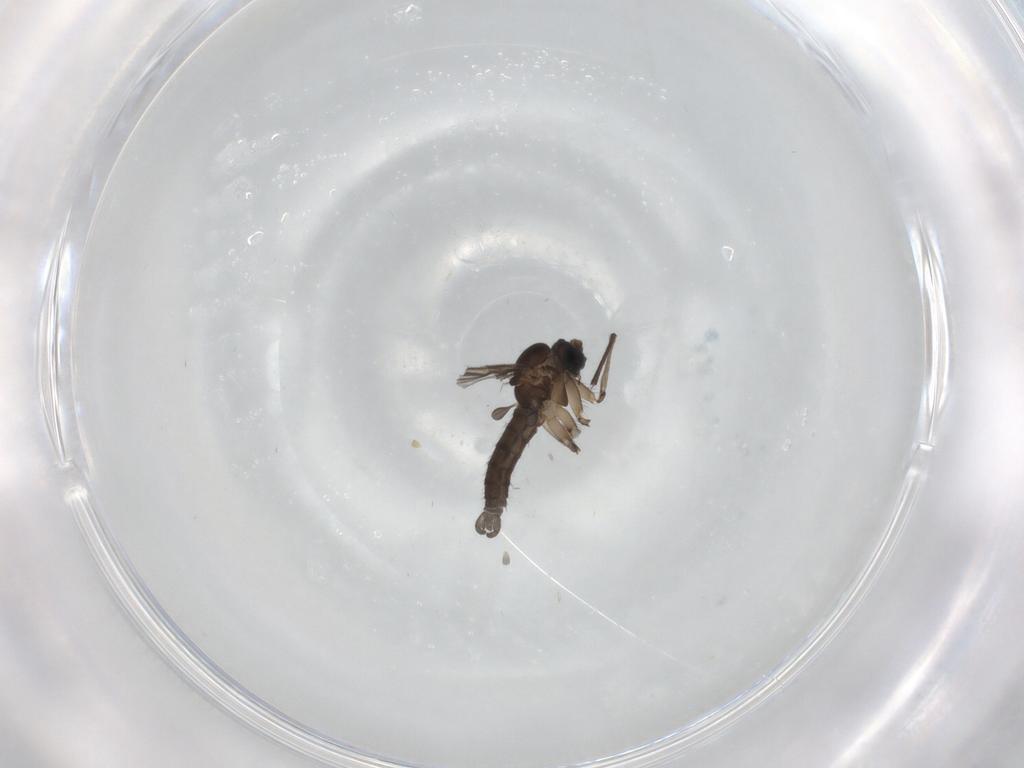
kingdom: Animalia
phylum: Arthropoda
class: Insecta
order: Diptera
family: Sciaridae
